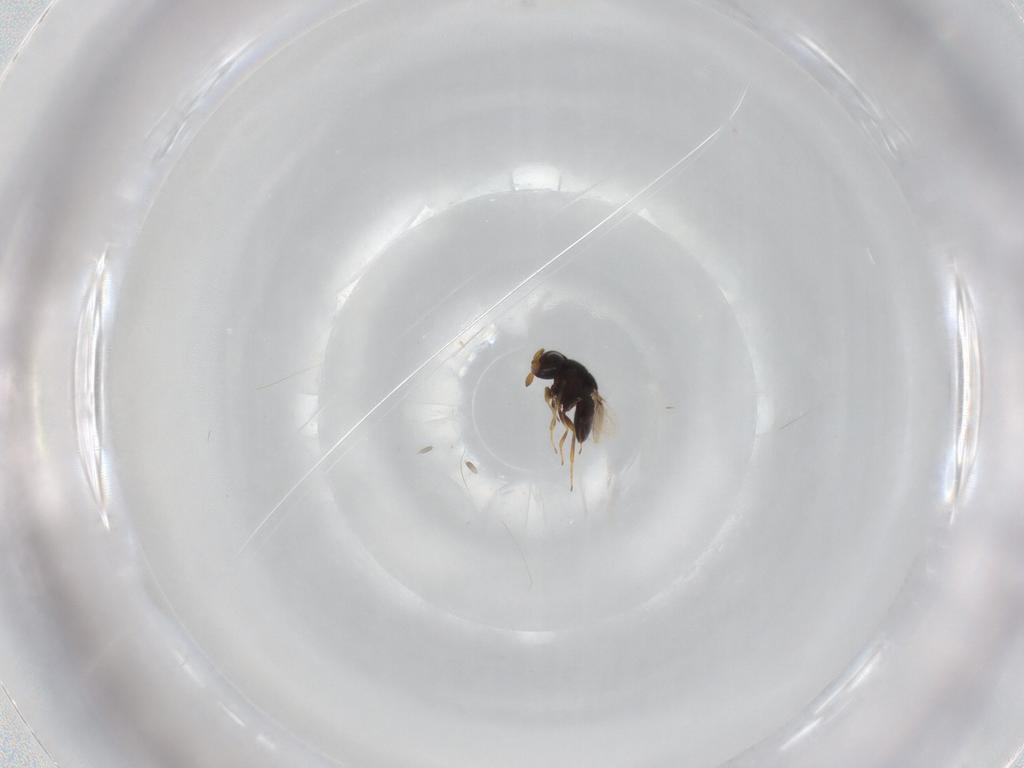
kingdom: Animalia
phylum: Arthropoda
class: Insecta
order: Hymenoptera
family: Scelionidae
